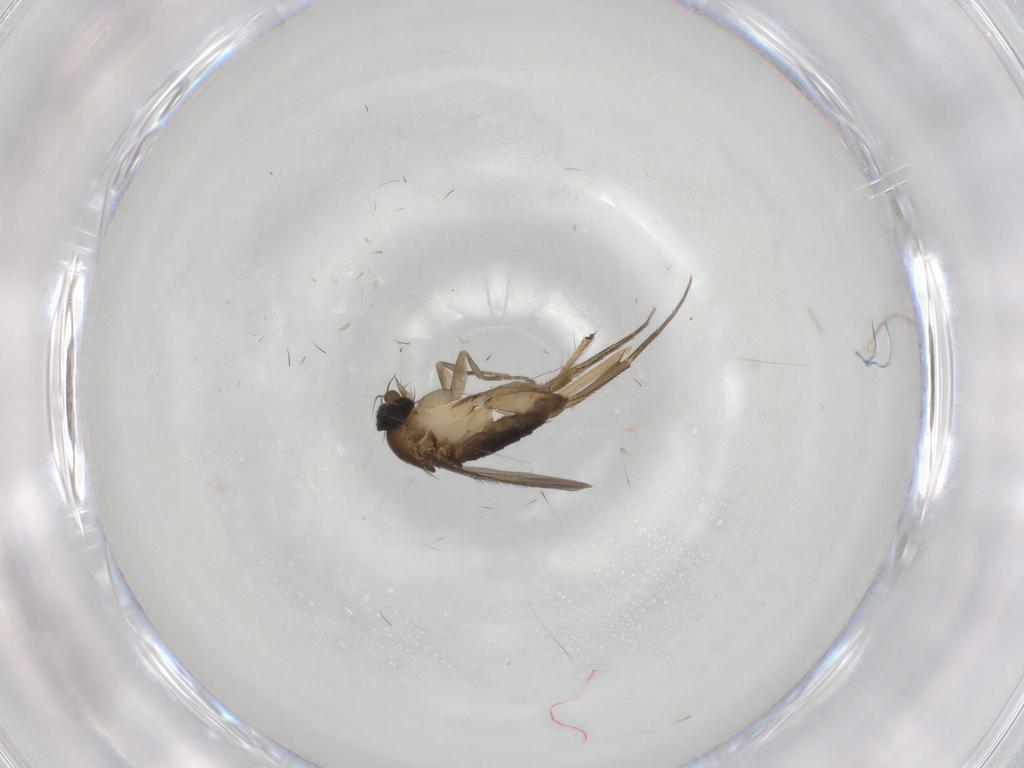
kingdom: Animalia
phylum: Arthropoda
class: Insecta
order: Diptera
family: Phoridae
